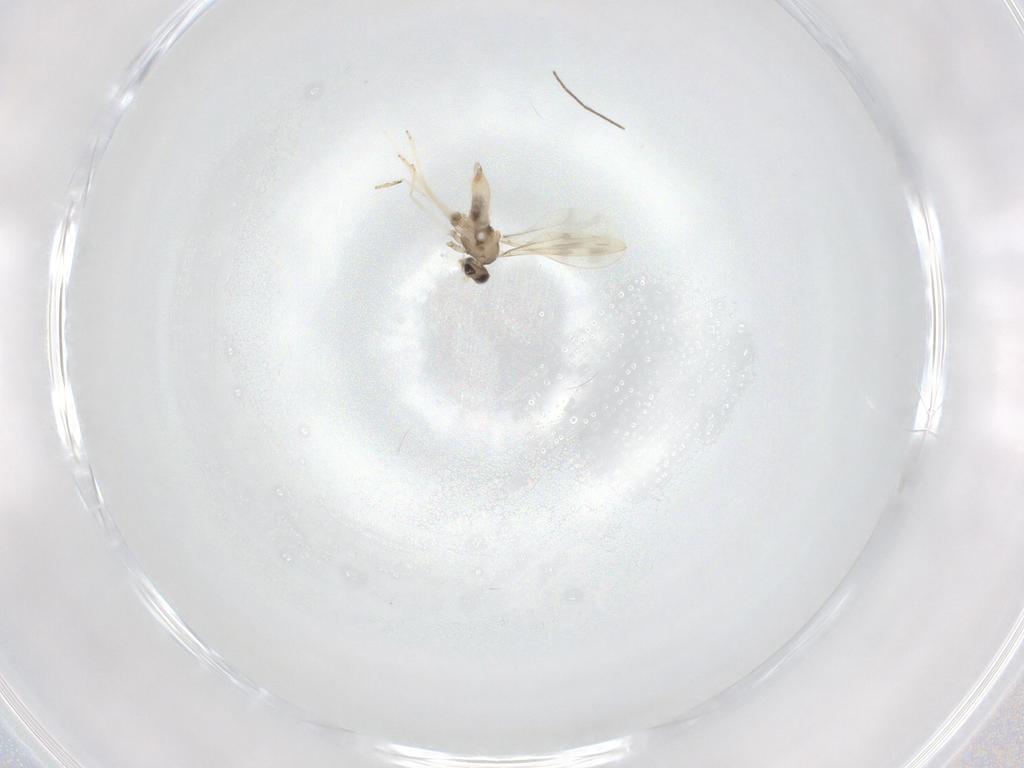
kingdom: Animalia
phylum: Arthropoda
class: Insecta
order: Diptera
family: Cecidomyiidae
